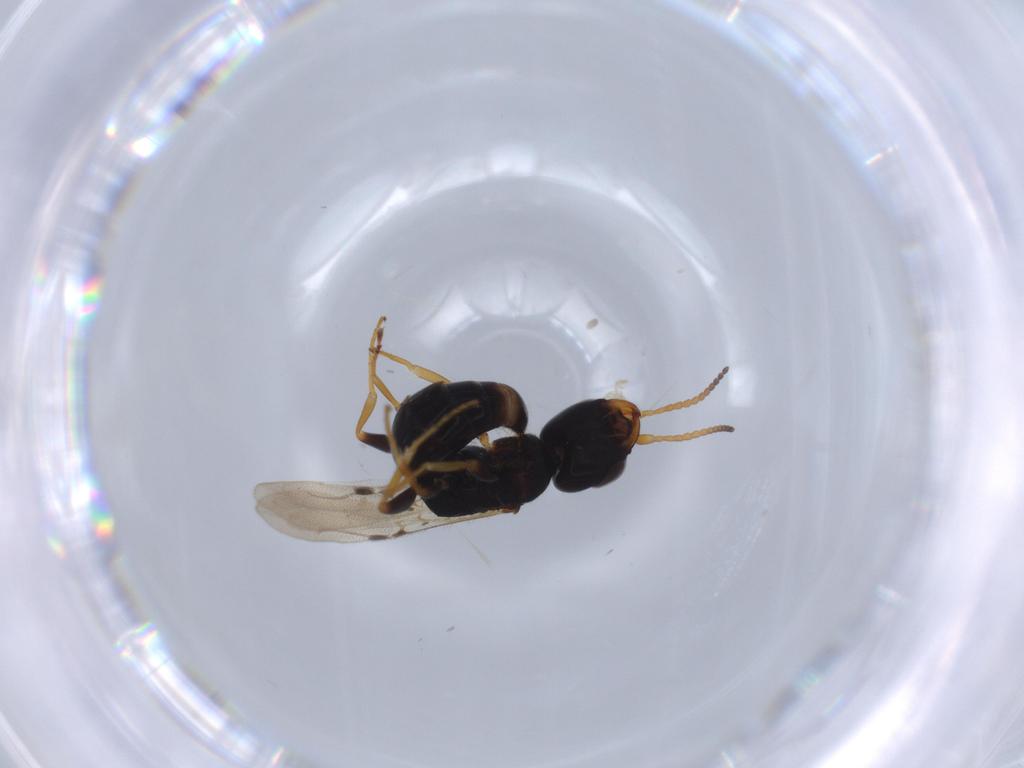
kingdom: Animalia
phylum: Arthropoda
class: Insecta
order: Hymenoptera
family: Bethylidae
